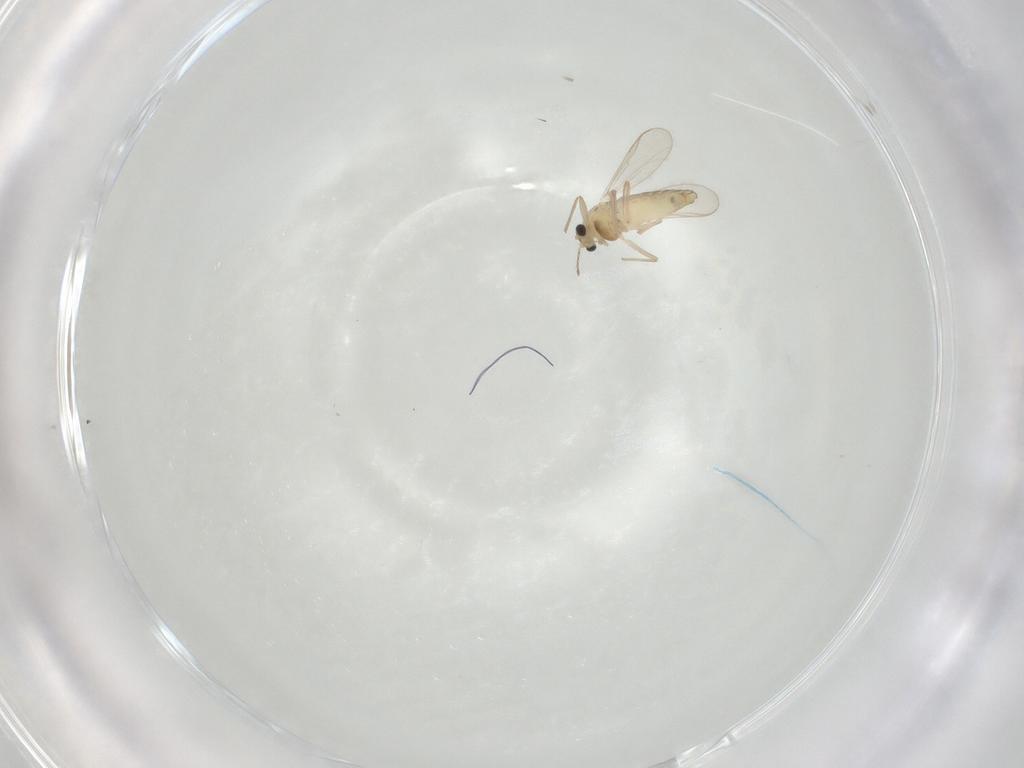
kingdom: Animalia
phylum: Arthropoda
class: Insecta
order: Diptera
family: Chironomidae
